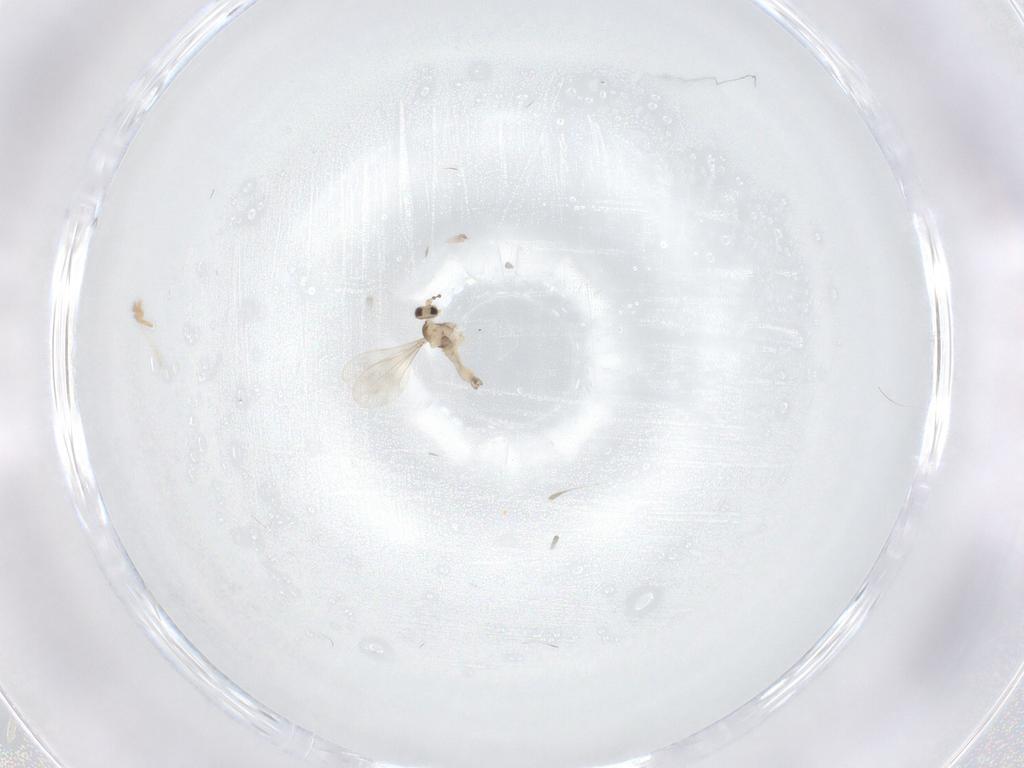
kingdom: Animalia
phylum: Arthropoda
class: Insecta
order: Diptera
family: Cecidomyiidae
